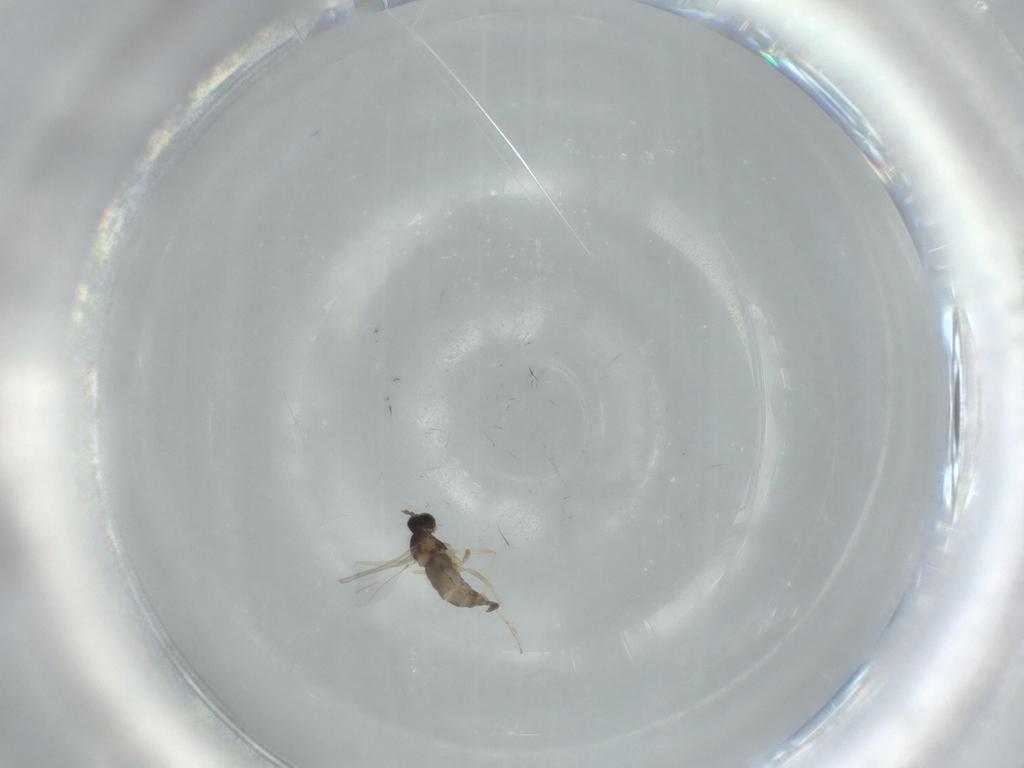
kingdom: Animalia
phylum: Arthropoda
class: Insecta
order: Diptera
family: Cecidomyiidae
